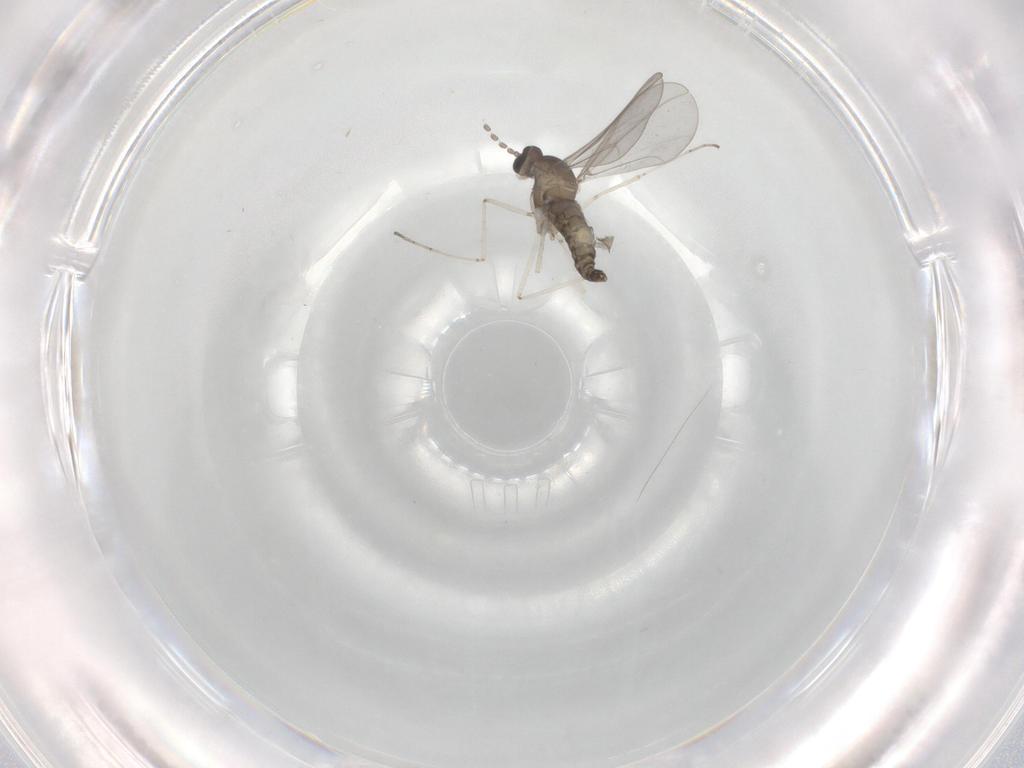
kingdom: Animalia
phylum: Arthropoda
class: Insecta
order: Diptera
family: Cecidomyiidae
